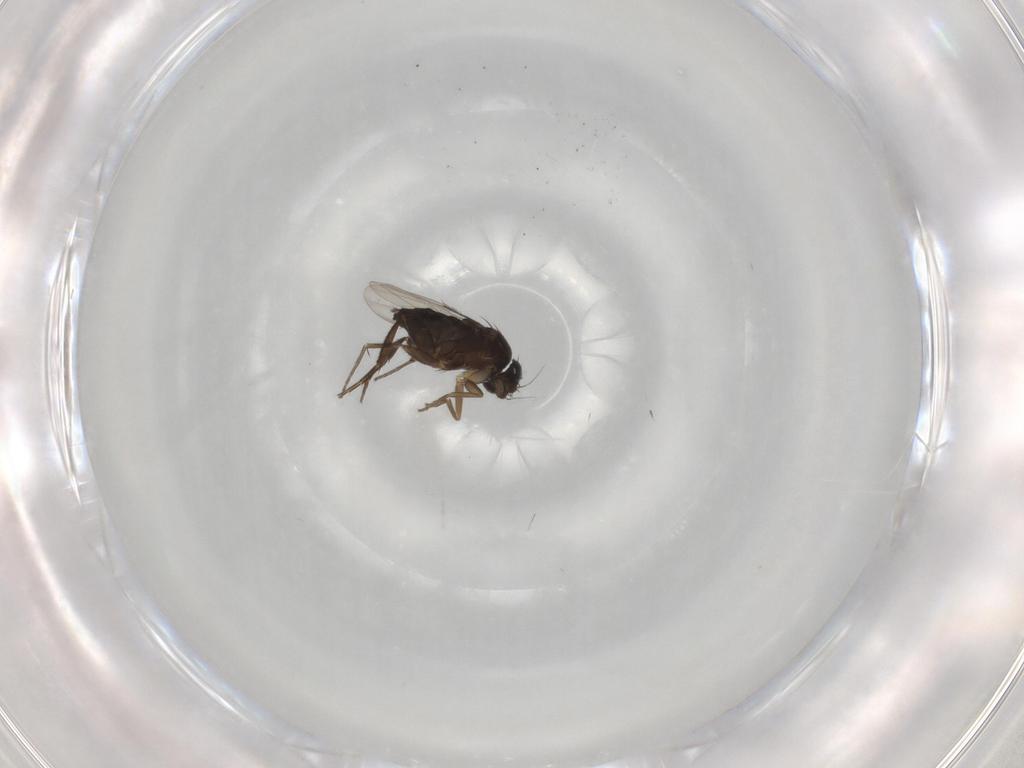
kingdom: Animalia
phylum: Arthropoda
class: Insecta
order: Diptera
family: Phoridae
